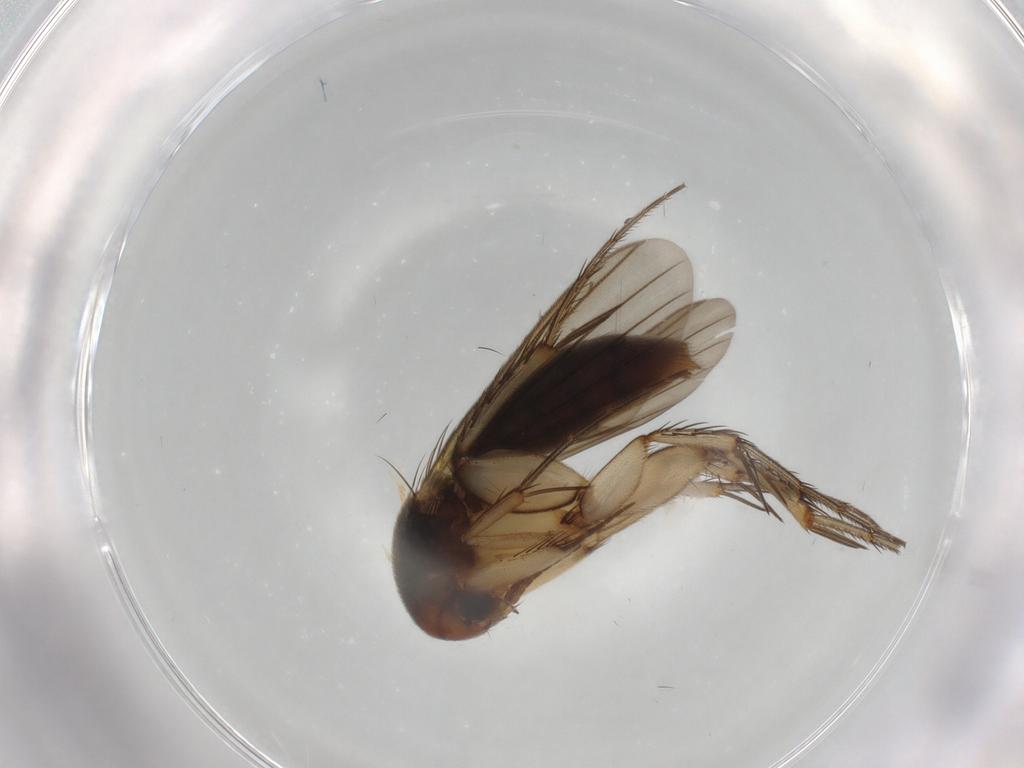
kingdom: Animalia
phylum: Arthropoda
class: Insecta
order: Diptera
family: Mycetophilidae
